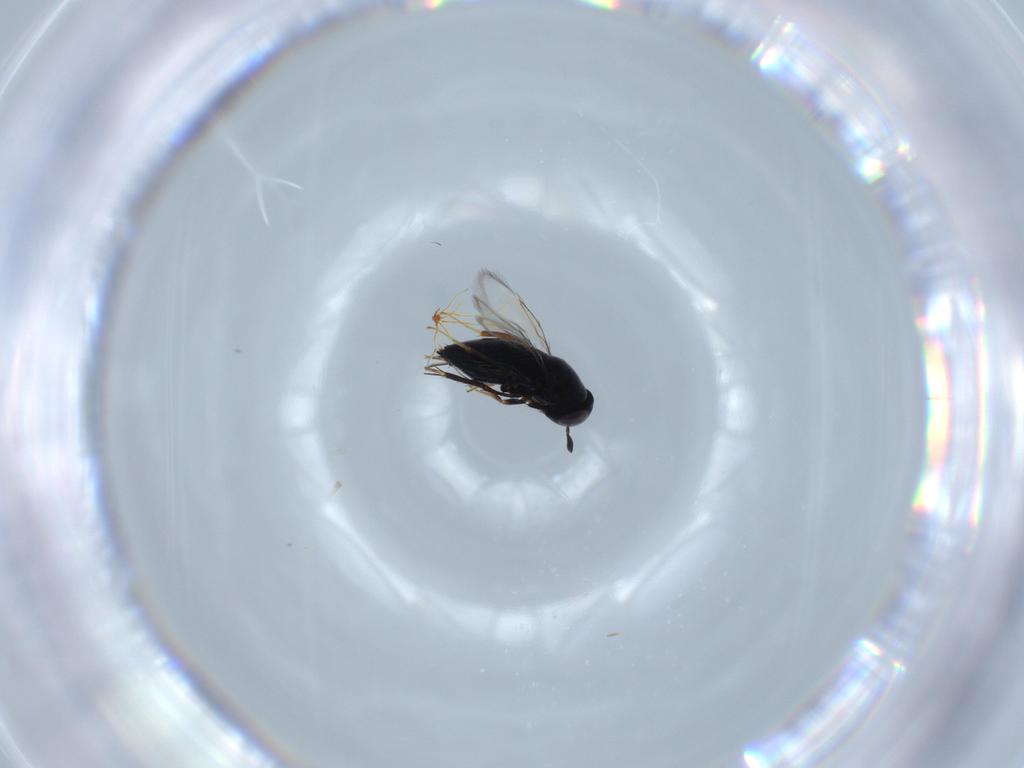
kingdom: Animalia
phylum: Arthropoda
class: Insecta
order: Hymenoptera
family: Signiphoridae
